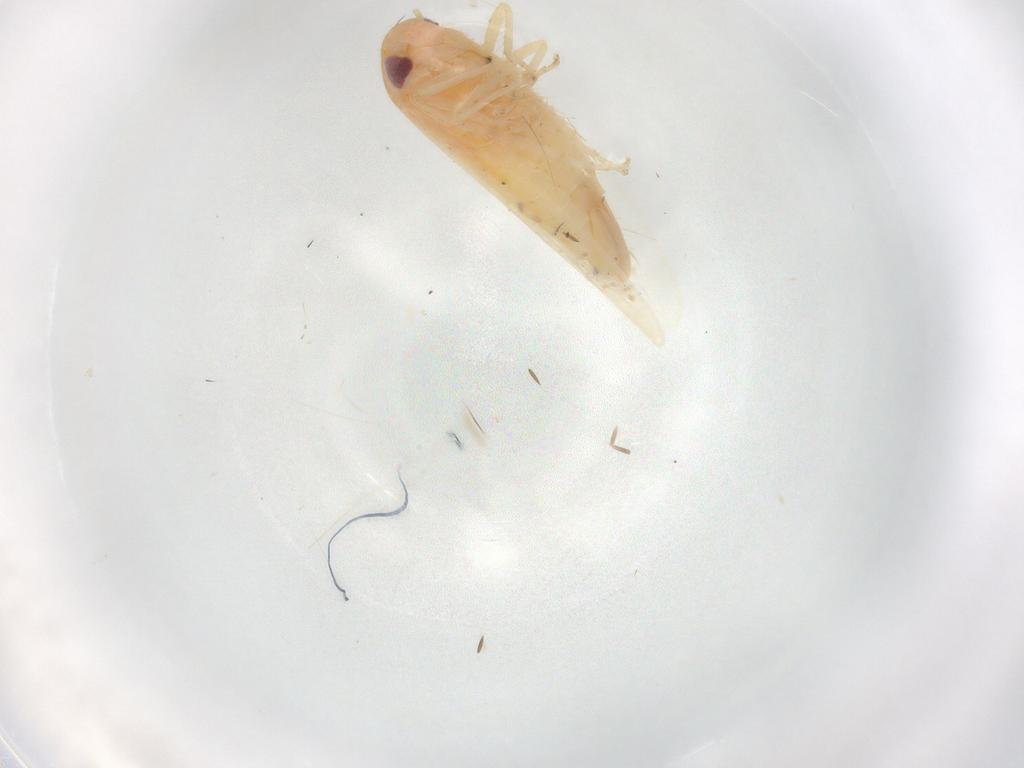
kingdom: Animalia
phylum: Arthropoda
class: Insecta
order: Hemiptera
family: Cicadellidae
